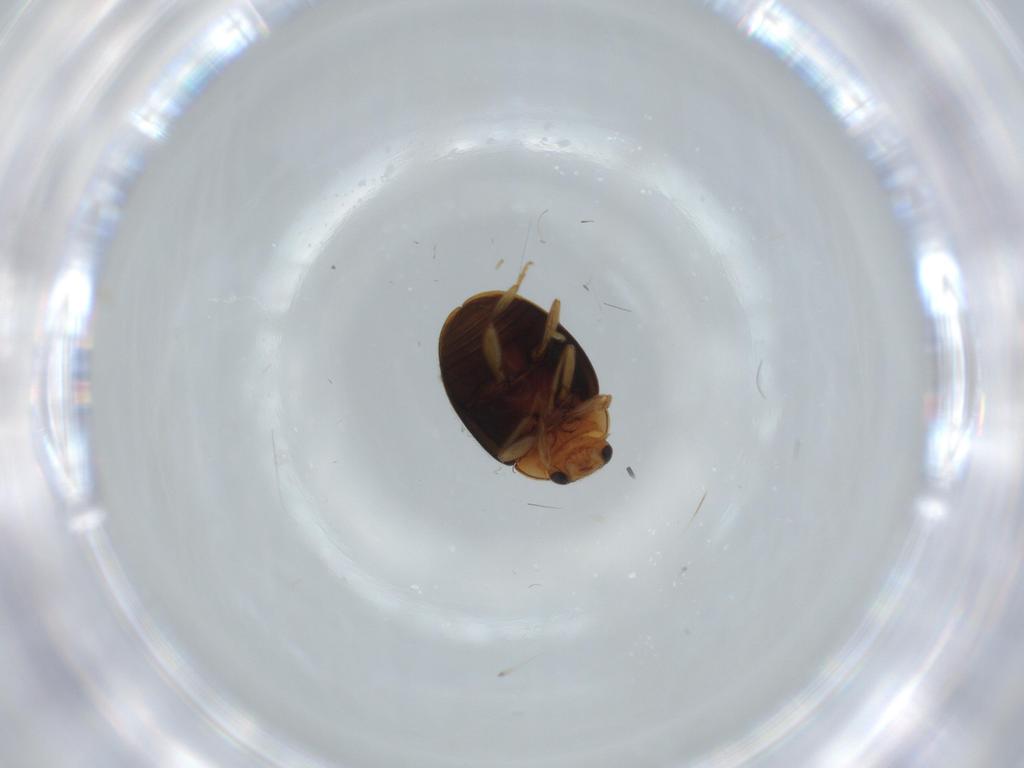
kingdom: Animalia
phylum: Arthropoda
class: Insecta
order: Coleoptera
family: Coccinellidae
